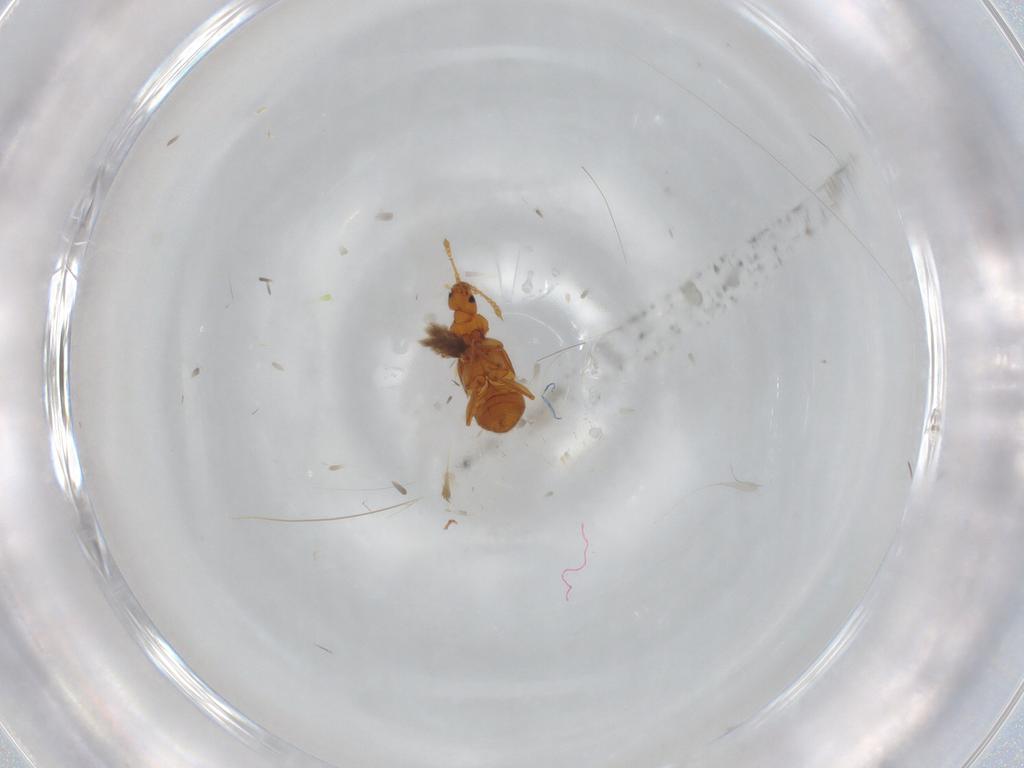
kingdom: Animalia
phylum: Arthropoda
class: Insecta
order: Coleoptera
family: Staphylinidae
